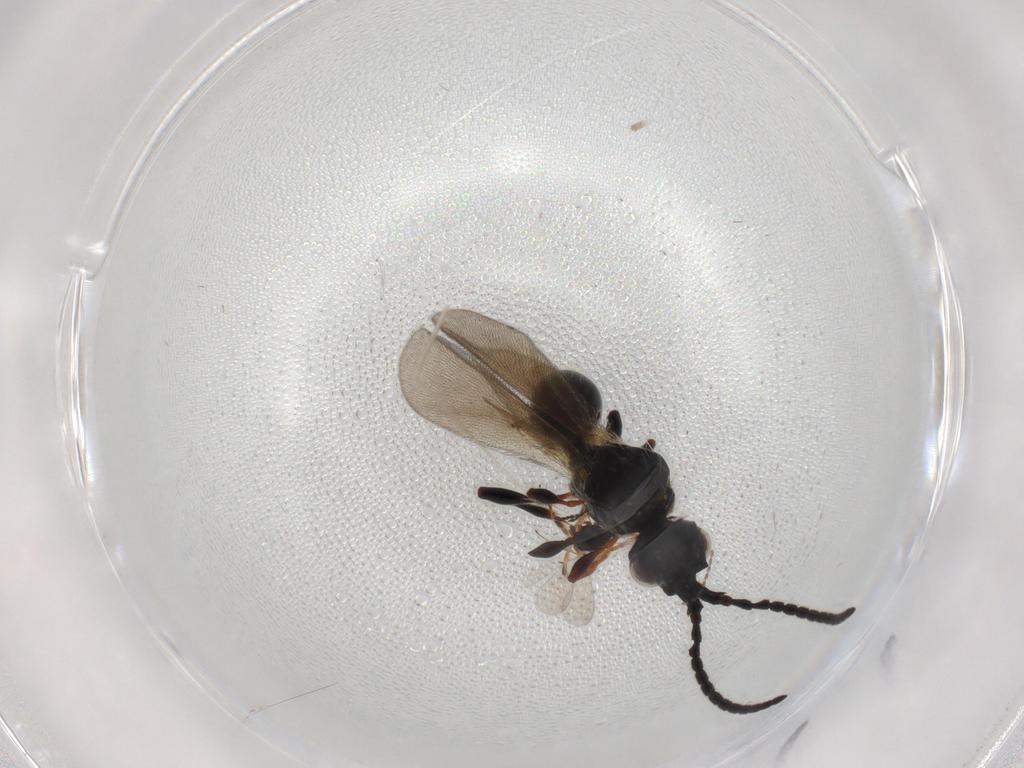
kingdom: Animalia
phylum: Arthropoda
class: Insecta
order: Hymenoptera
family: Diapriidae
